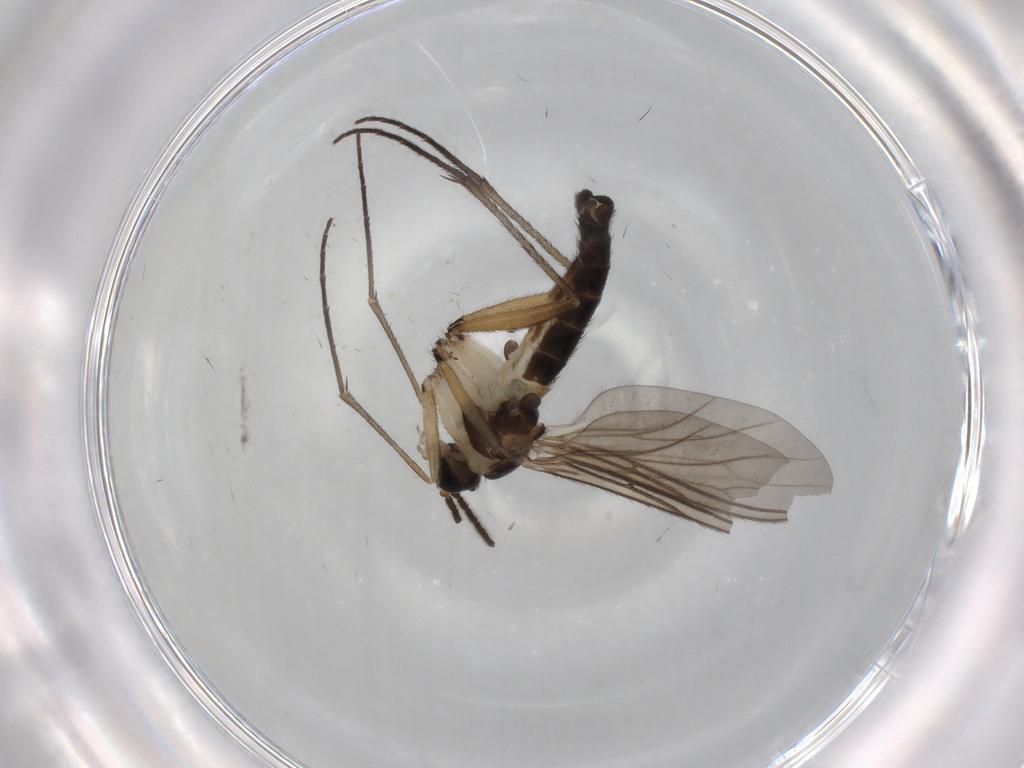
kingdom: Animalia
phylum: Arthropoda
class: Insecta
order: Diptera
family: Sciaridae
